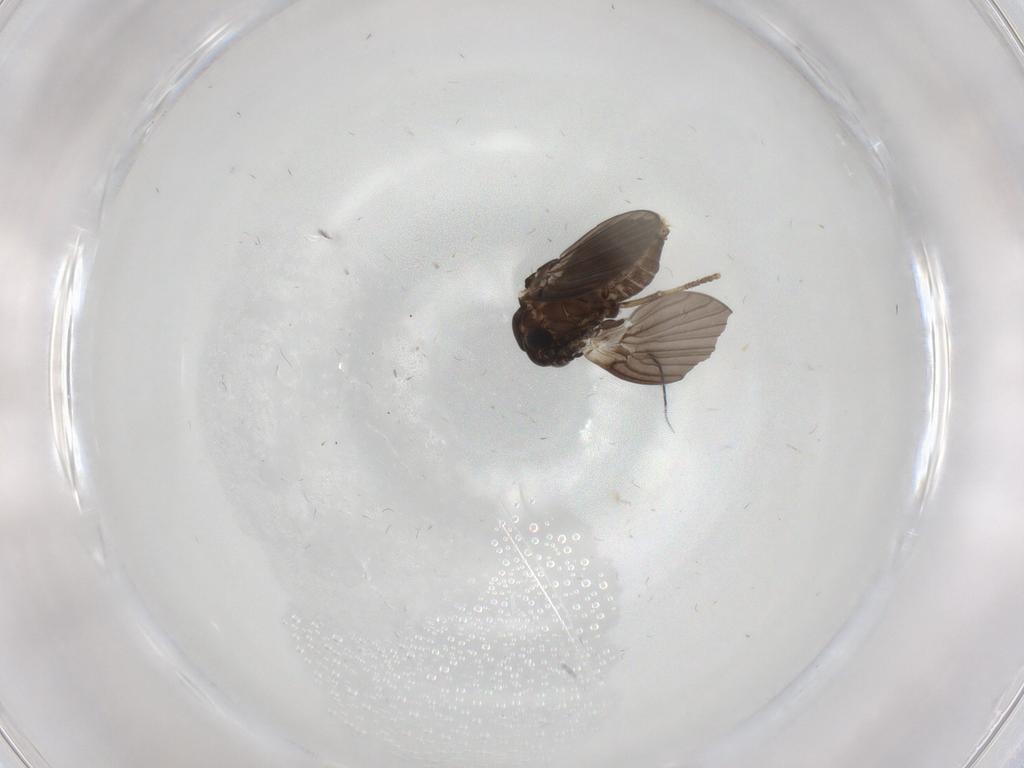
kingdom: Animalia
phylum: Arthropoda
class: Insecta
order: Diptera
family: Psychodidae
